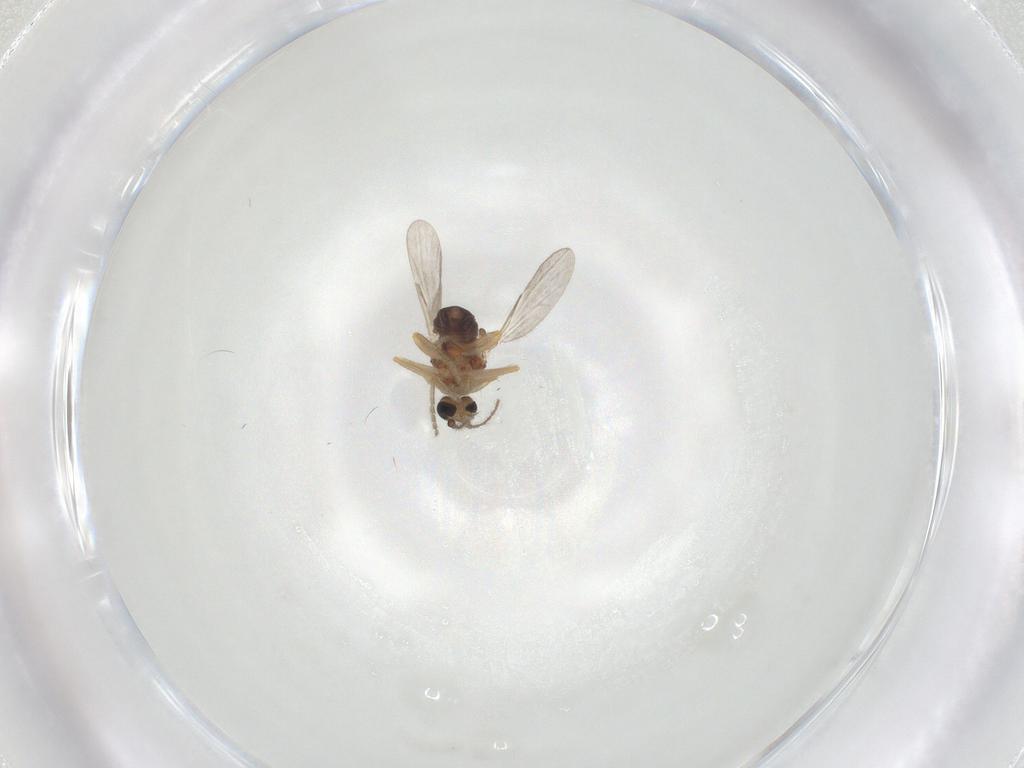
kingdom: Animalia
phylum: Arthropoda
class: Insecta
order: Diptera
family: Ceratopogonidae
